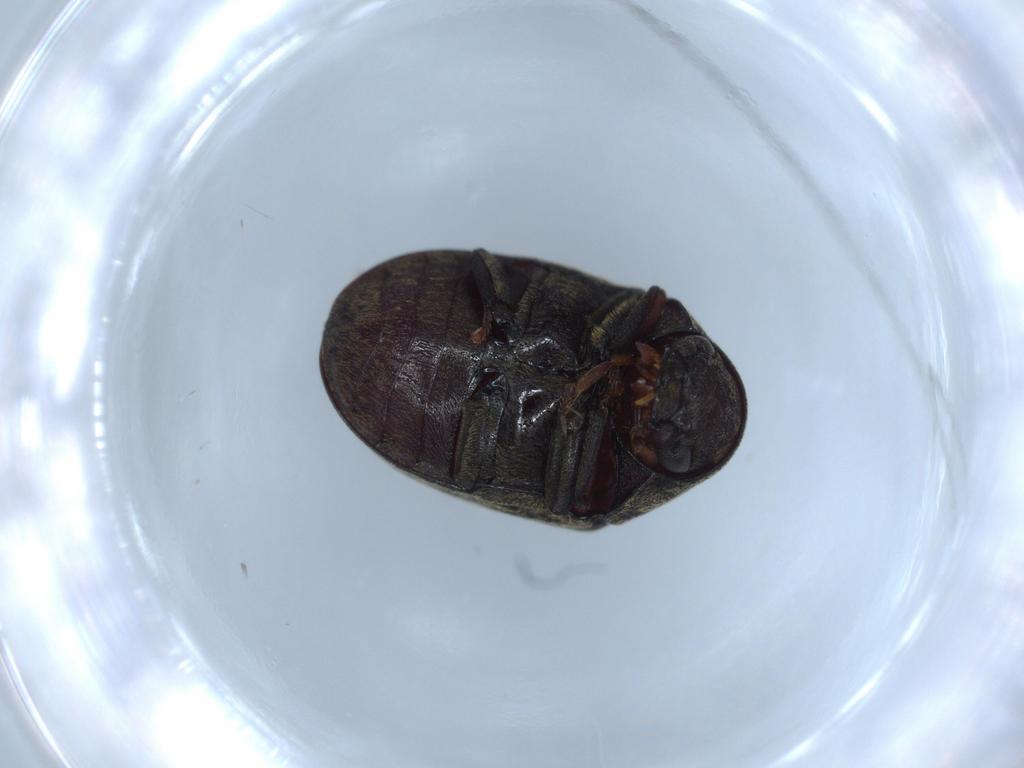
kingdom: Animalia
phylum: Arthropoda
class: Insecta
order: Coleoptera
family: Ptinidae
